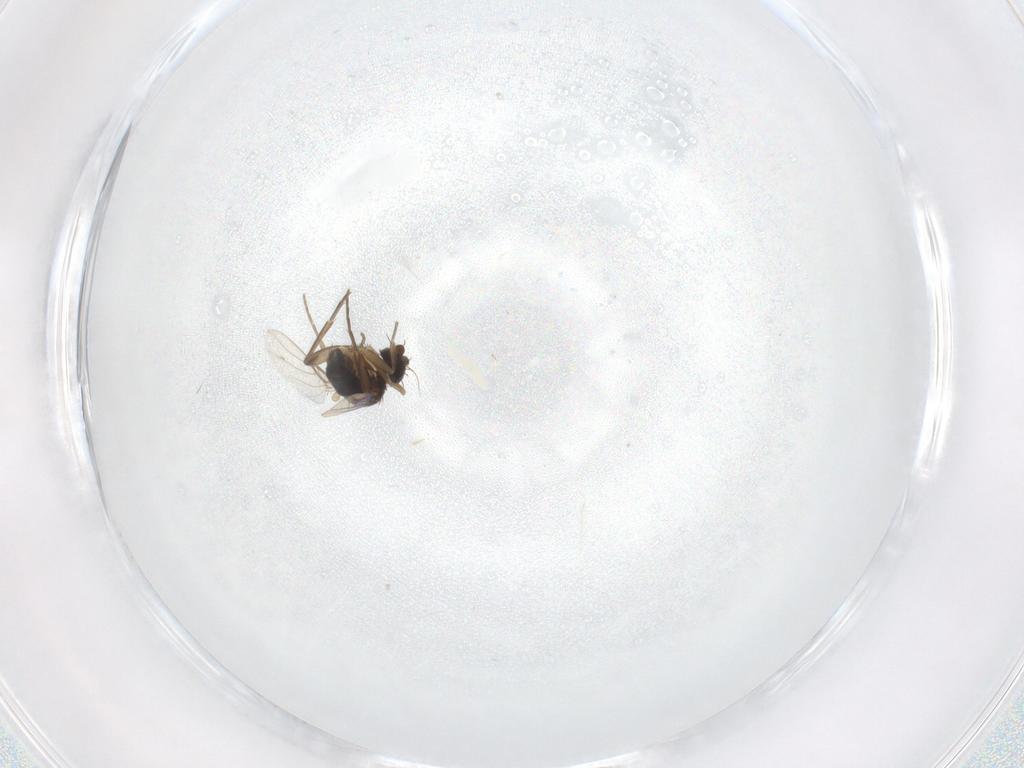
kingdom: Animalia
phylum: Arthropoda
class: Insecta
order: Diptera
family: Phoridae
